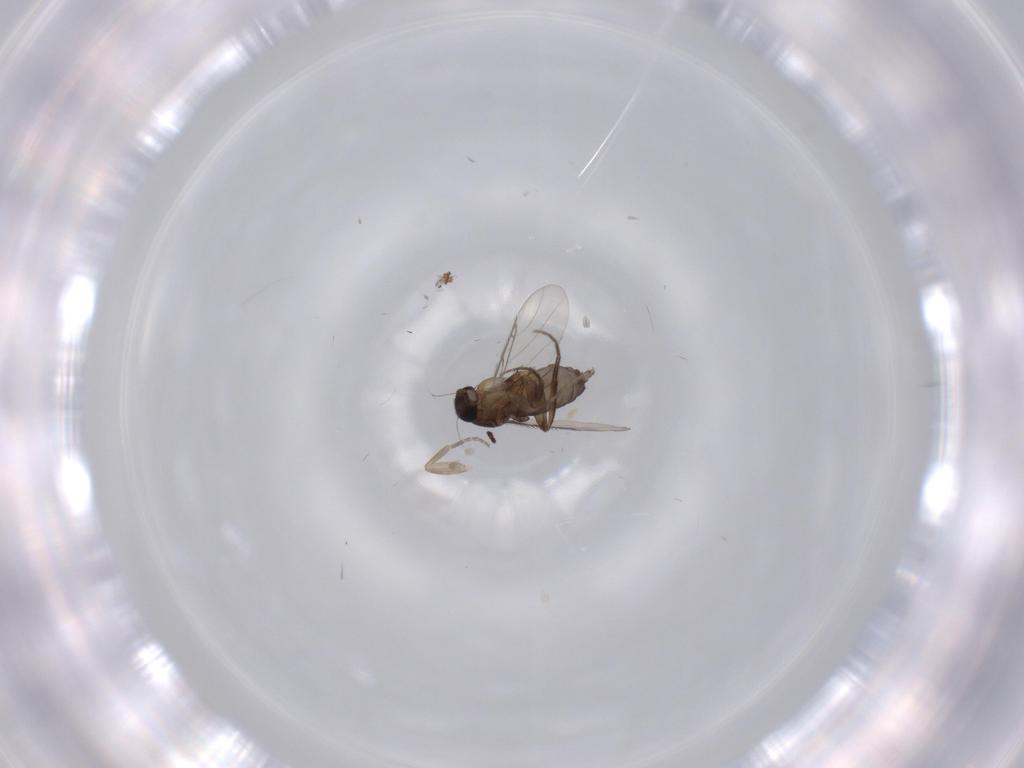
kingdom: Animalia
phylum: Arthropoda
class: Insecta
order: Diptera
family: Phoridae
